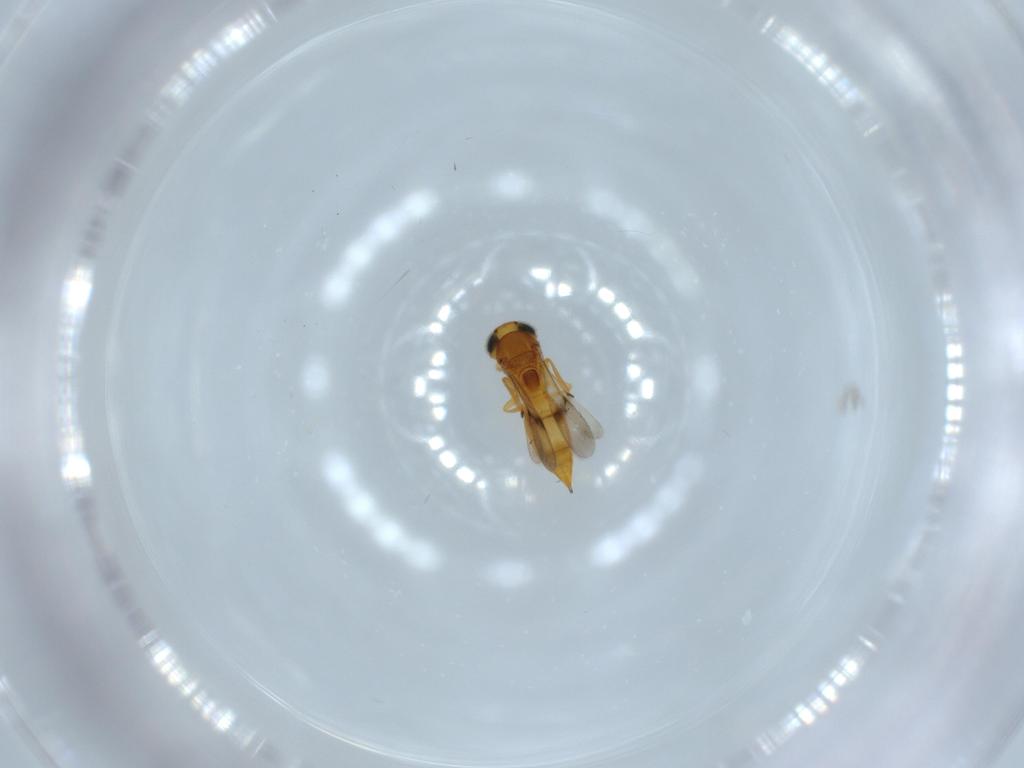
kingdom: Animalia
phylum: Arthropoda
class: Insecta
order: Hymenoptera
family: Scelionidae
